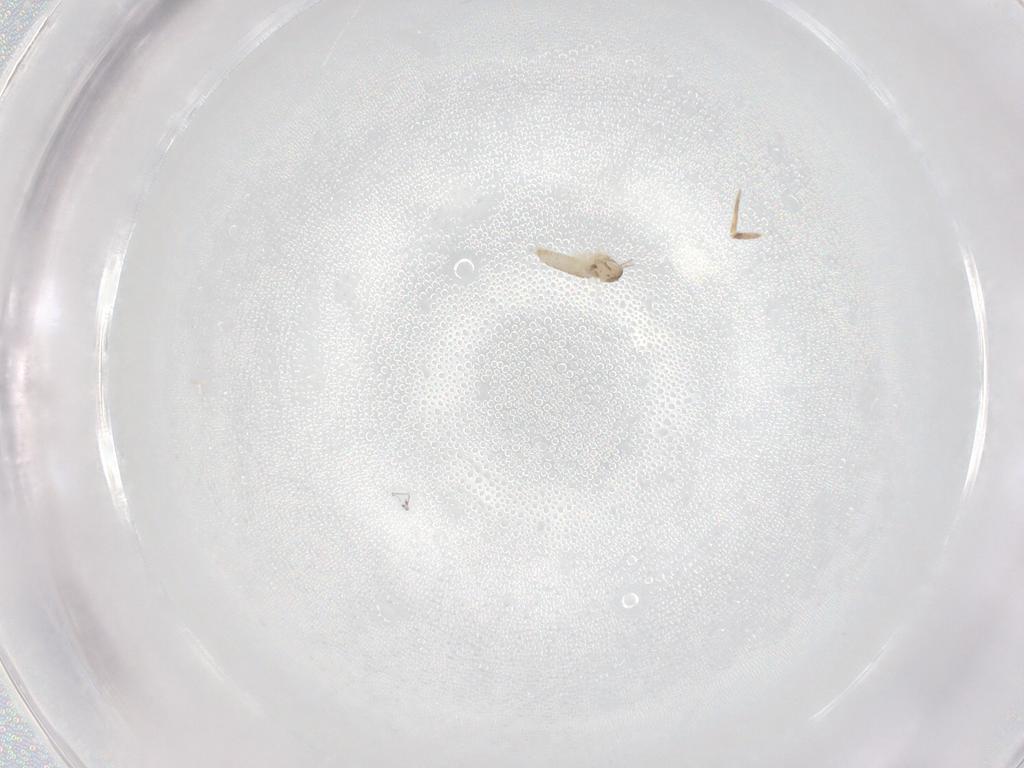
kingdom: Animalia
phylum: Arthropoda
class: Insecta
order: Diptera
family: Cecidomyiidae
